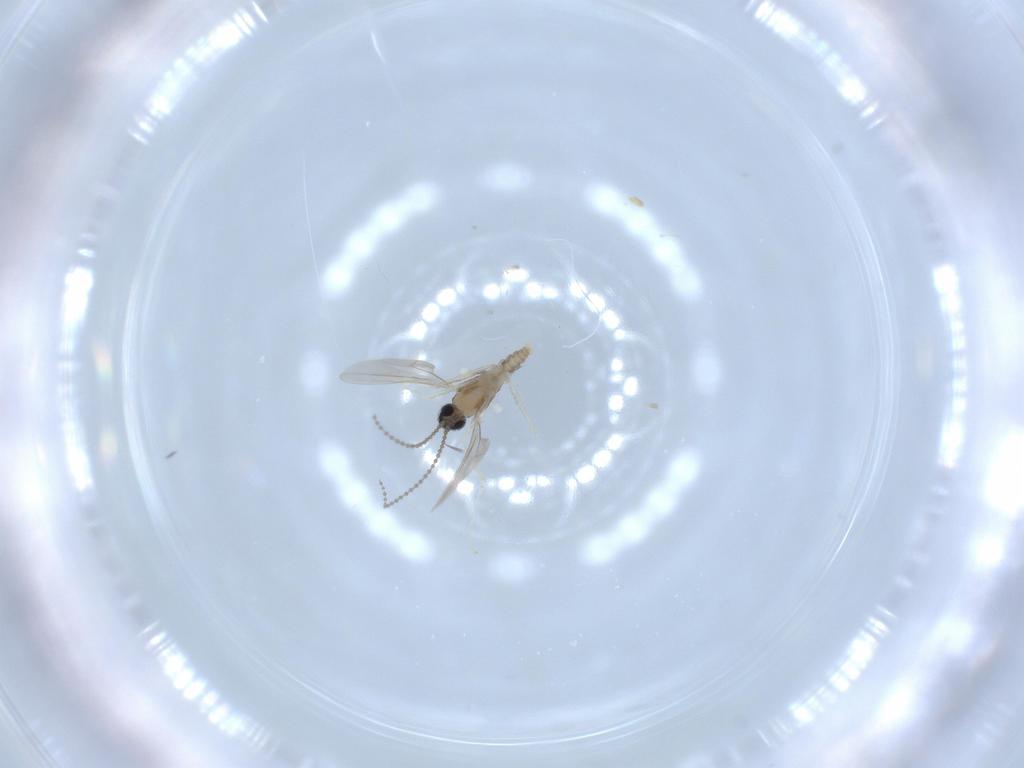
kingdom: Animalia
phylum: Arthropoda
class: Insecta
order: Diptera
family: Cecidomyiidae
